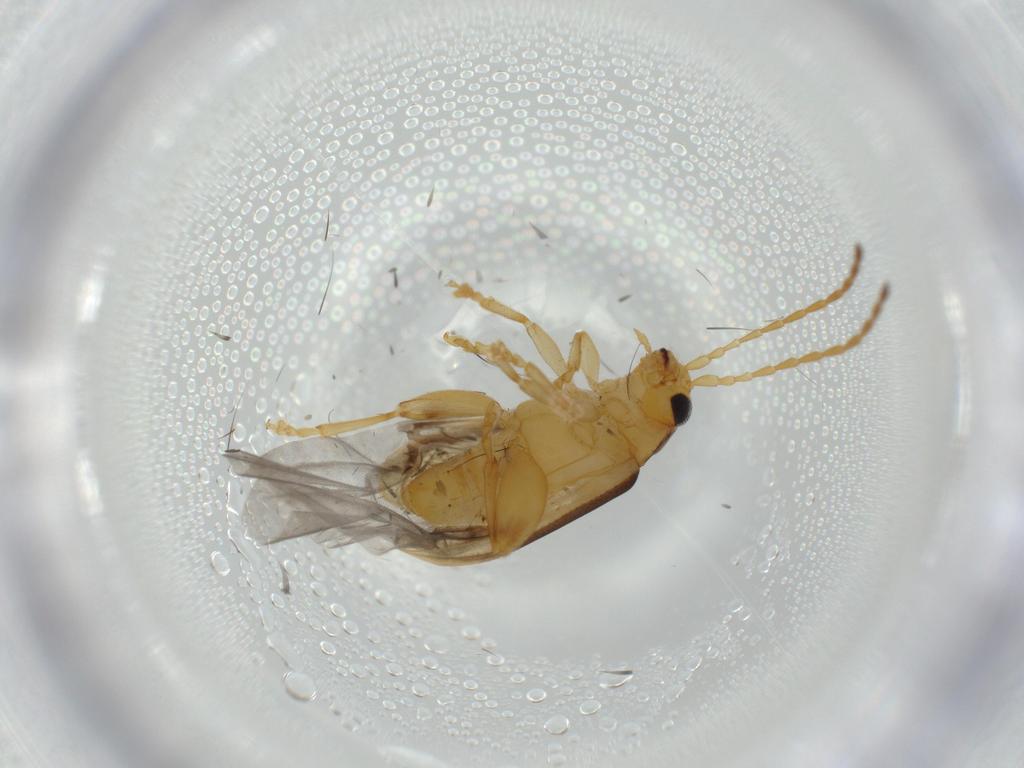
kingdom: Animalia
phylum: Arthropoda
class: Insecta
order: Coleoptera
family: Chrysomelidae
